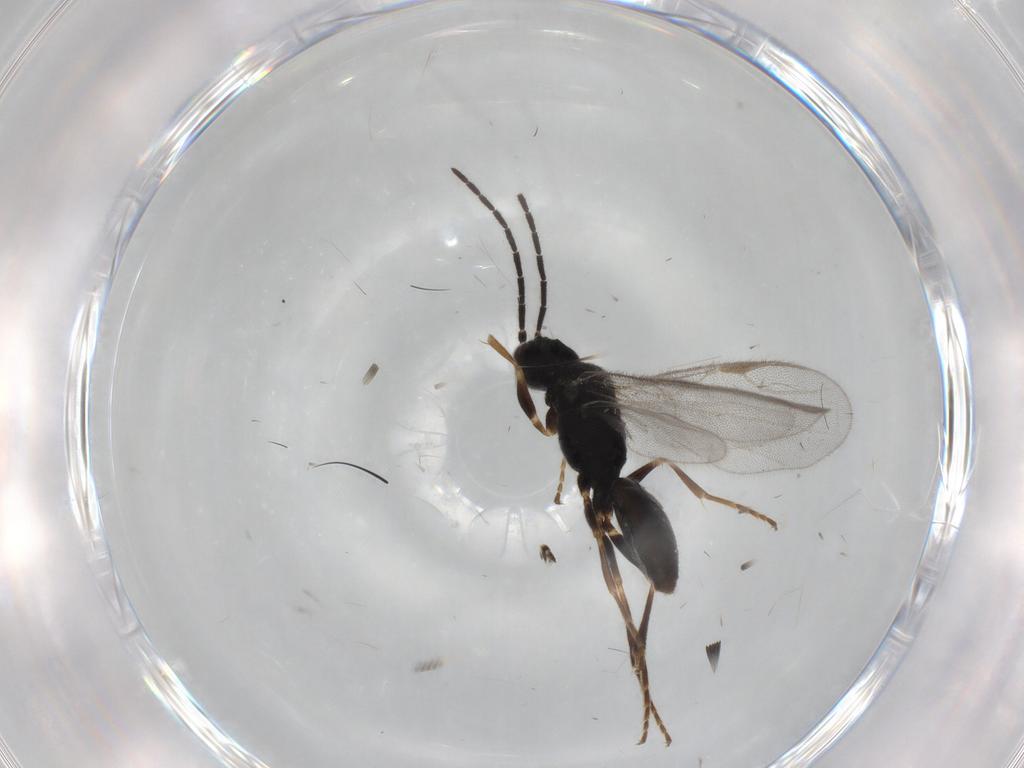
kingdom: Animalia
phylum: Arthropoda
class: Insecta
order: Hymenoptera
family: Dryinidae
